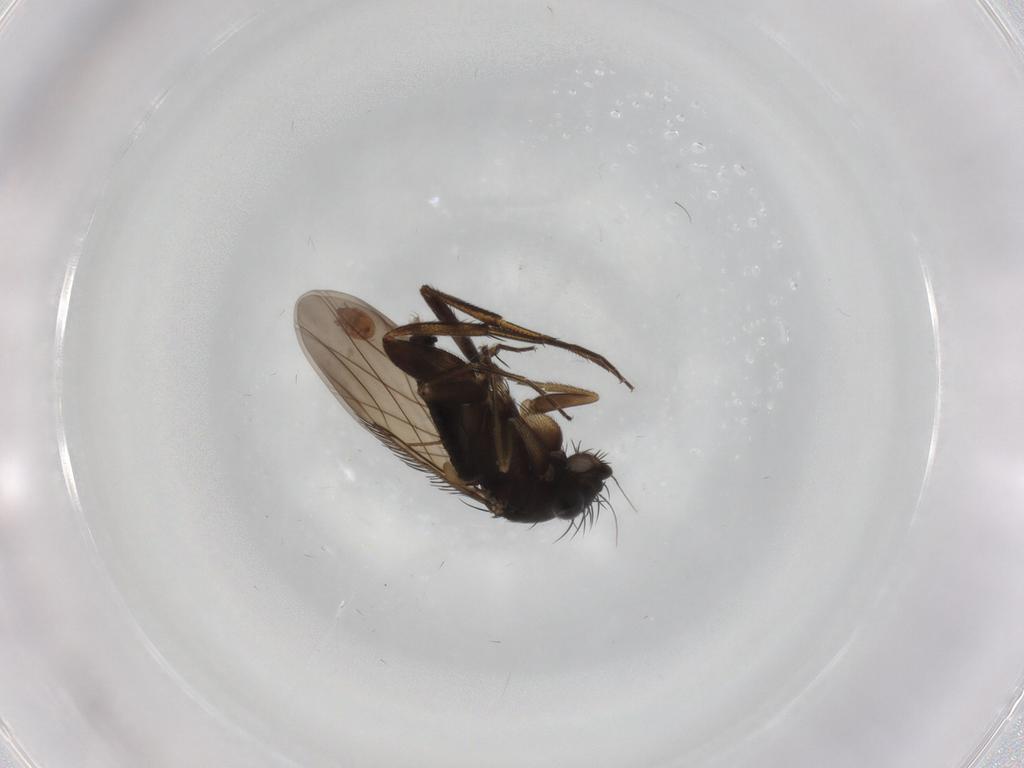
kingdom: Animalia
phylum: Arthropoda
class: Insecta
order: Diptera
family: Phoridae
